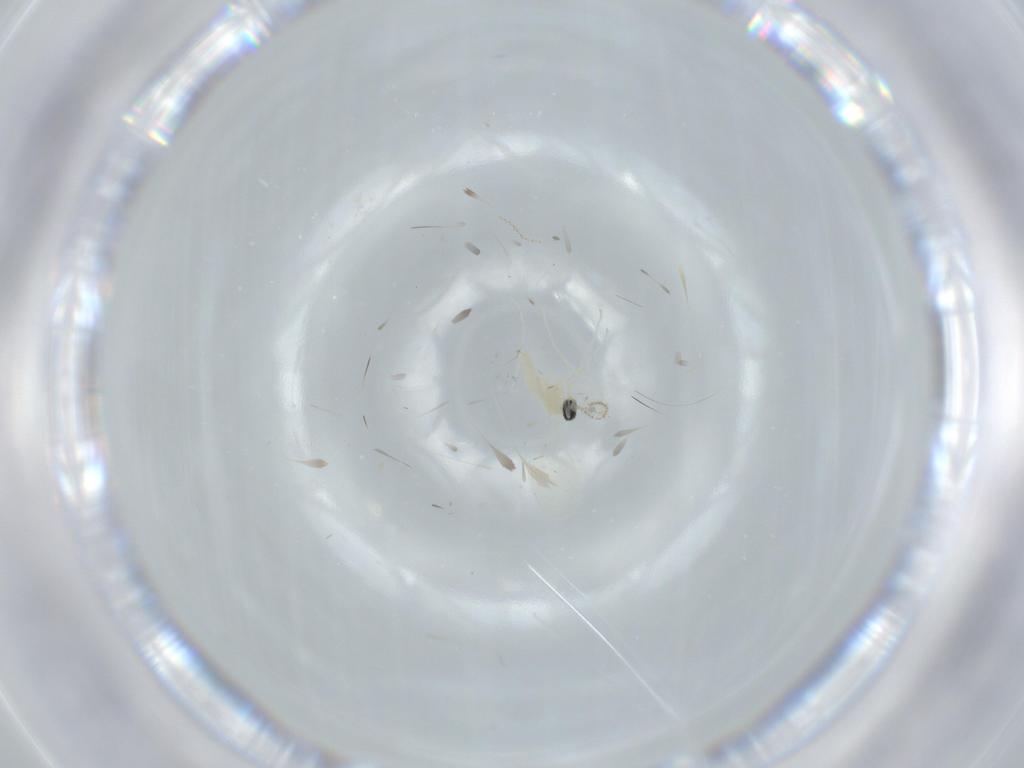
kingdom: Animalia
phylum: Arthropoda
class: Insecta
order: Diptera
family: Cecidomyiidae
